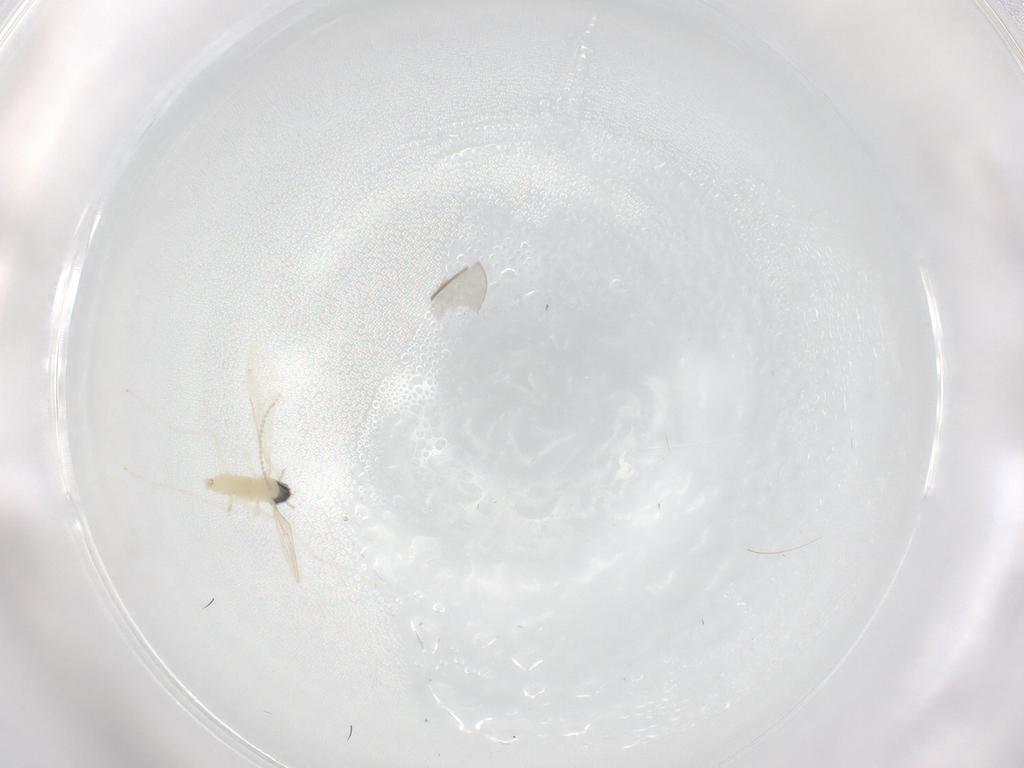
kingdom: Animalia
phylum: Arthropoda
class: Insecta
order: Diptera
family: Cecidomyiidae
